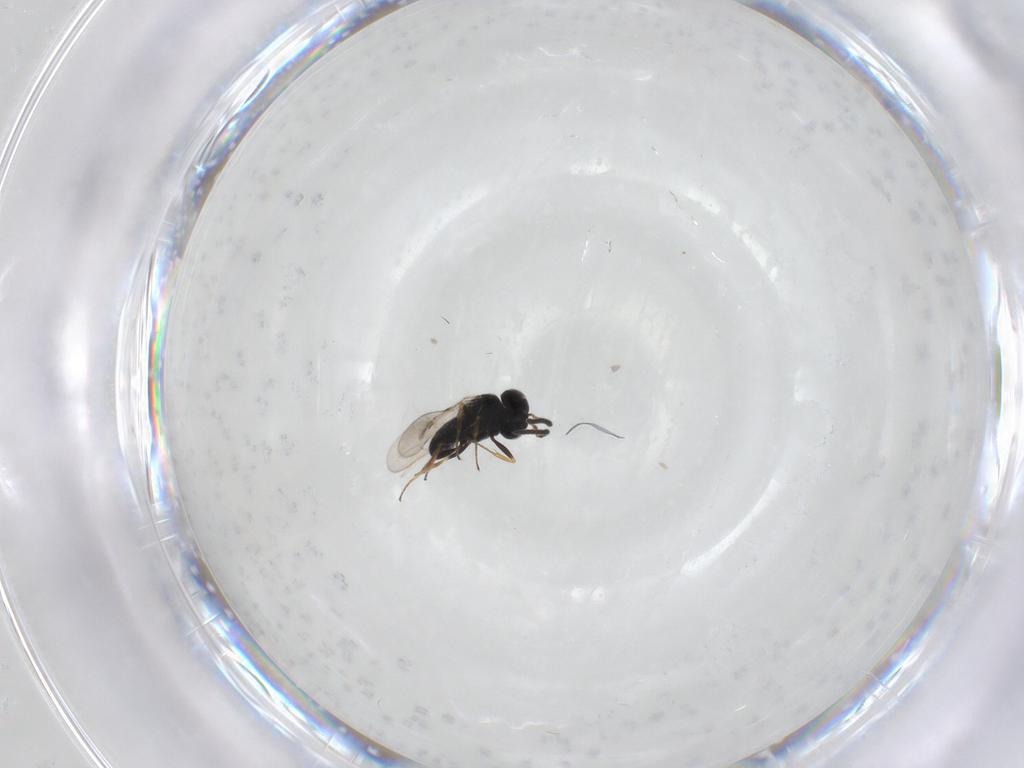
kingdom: Animalia
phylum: Arthropoda
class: Insecta
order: Hymenoptera
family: Scelionidae
